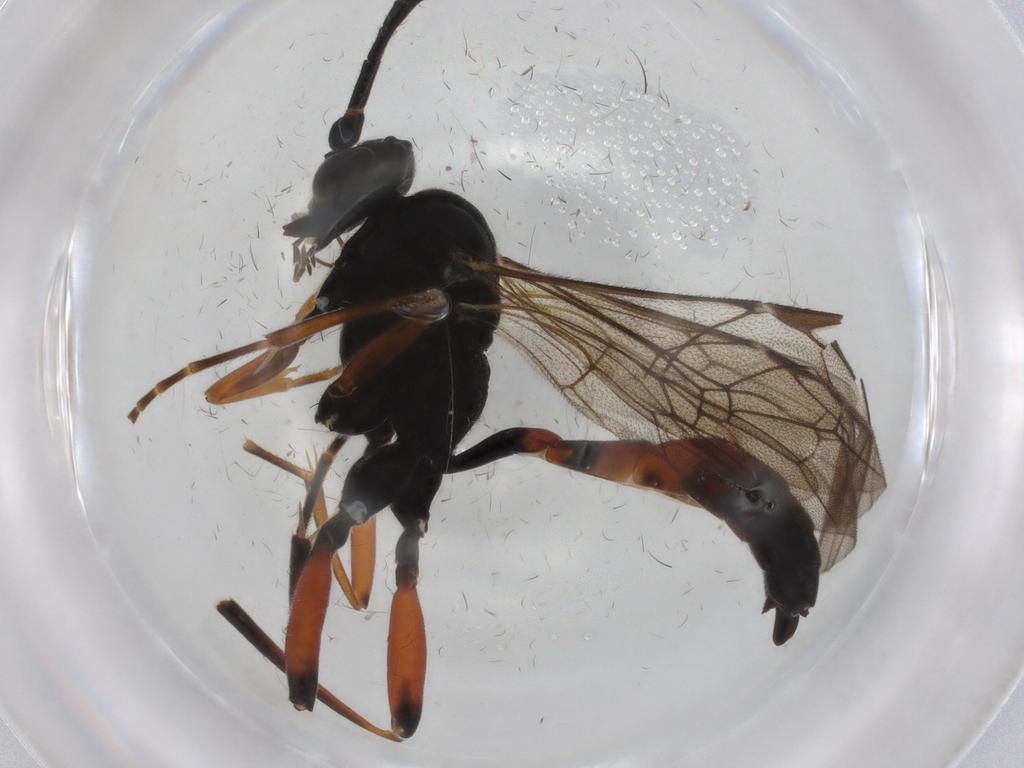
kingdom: Animalia
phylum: Arthropoda
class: Insecta
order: Hymenoptera
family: Ichneumonidae
